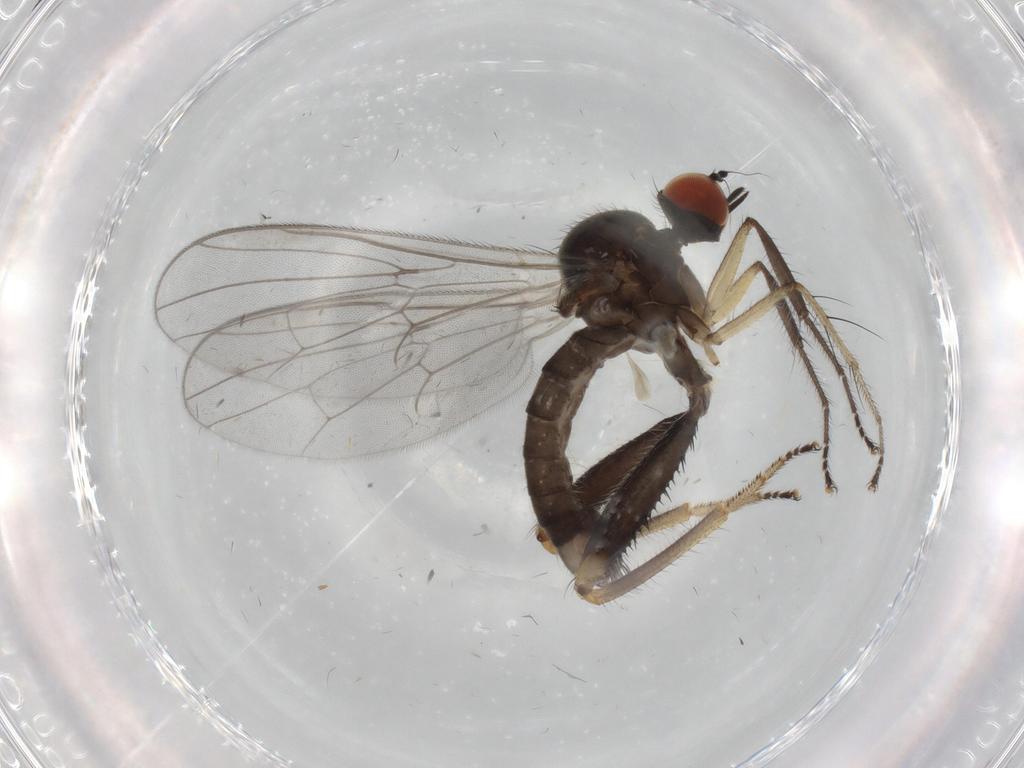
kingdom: Animalia
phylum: Arthropoda
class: Insecta
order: Diptera
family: Hybotidae
